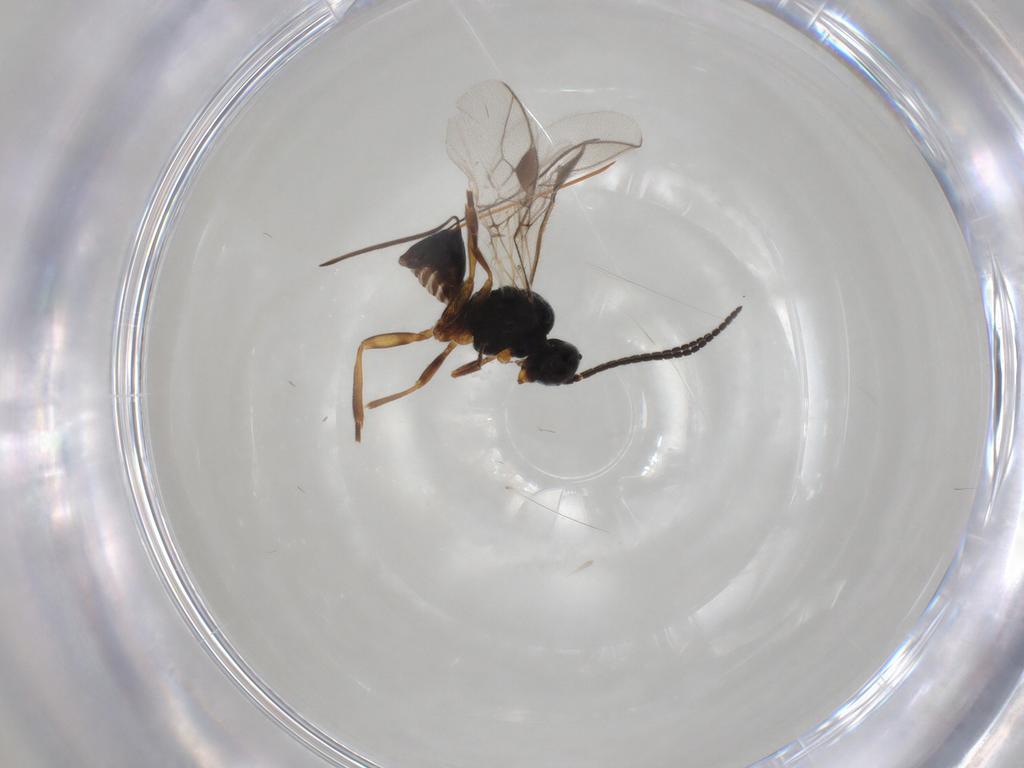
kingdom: Animalia
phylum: Arthropoda
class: Insecta
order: Hymenoptera
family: Braconidae
